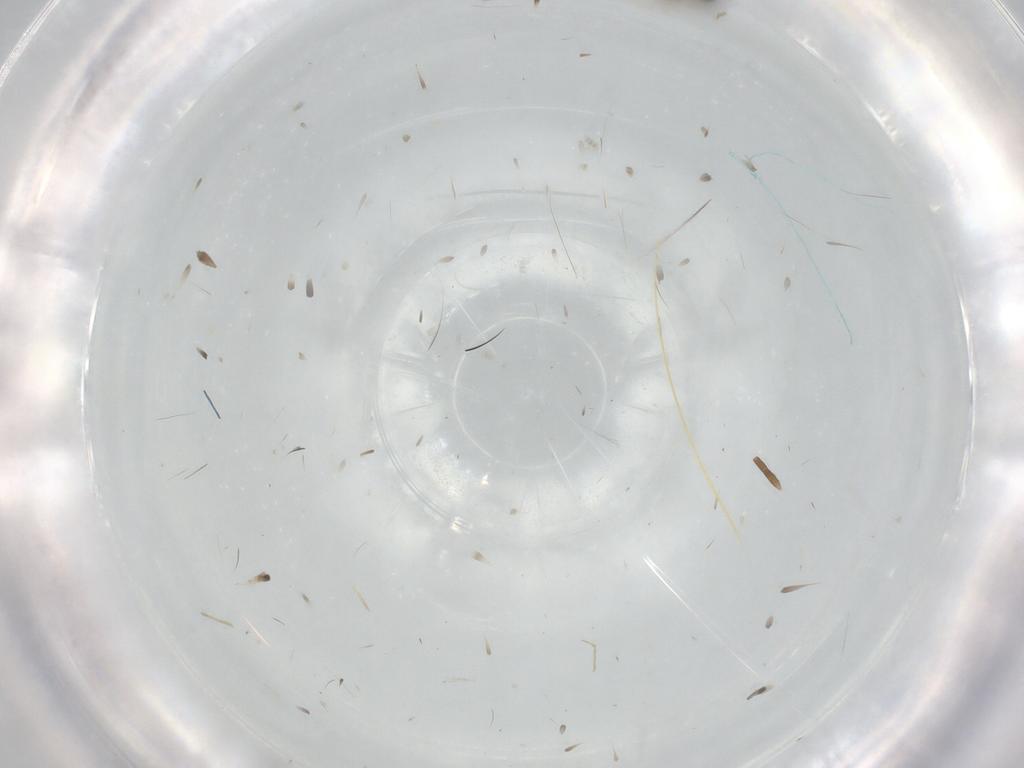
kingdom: Animalia
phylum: Arthropoda
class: Insecta
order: Diptera
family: Cecidomyiidae
